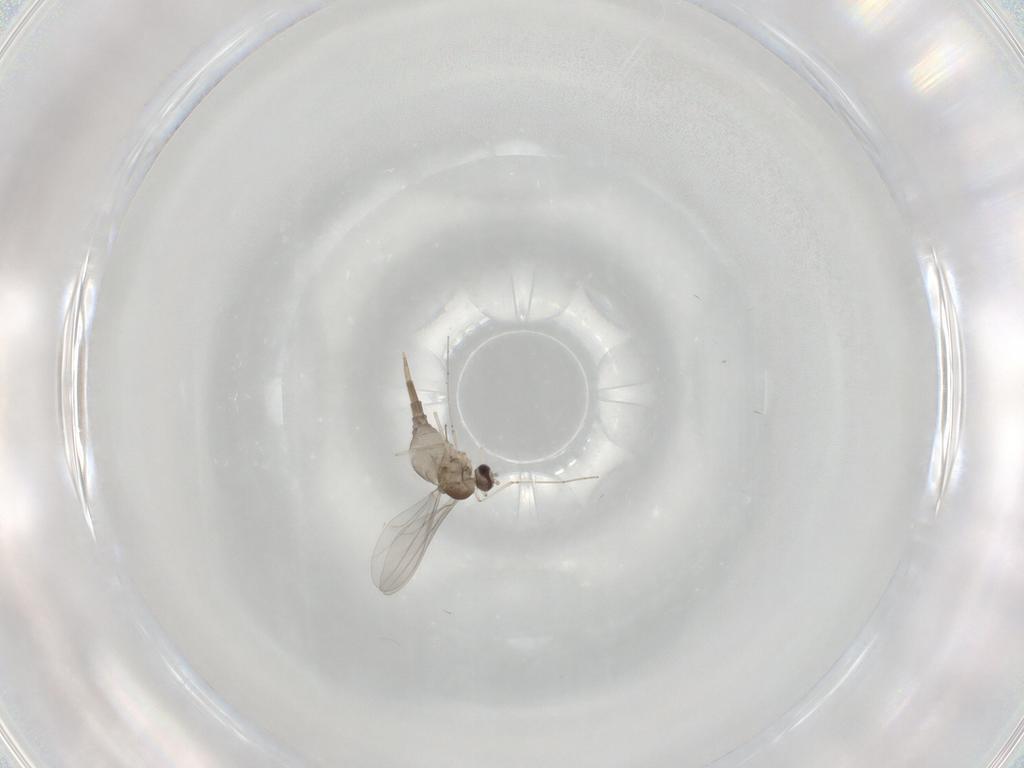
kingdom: Animalia
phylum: Arthropoda
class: Insecta
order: Diptera
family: Cecidomyiidae
